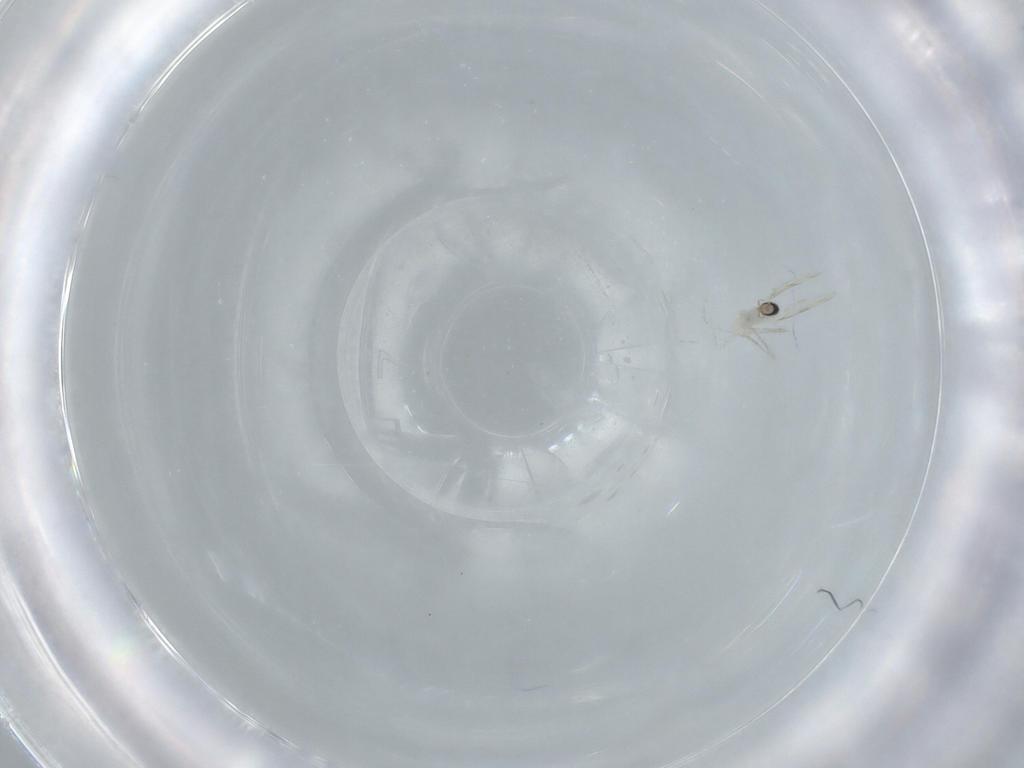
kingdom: Animalia
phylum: Arthropoda
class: Insecta
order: Diptera
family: Cecidomyiidae
